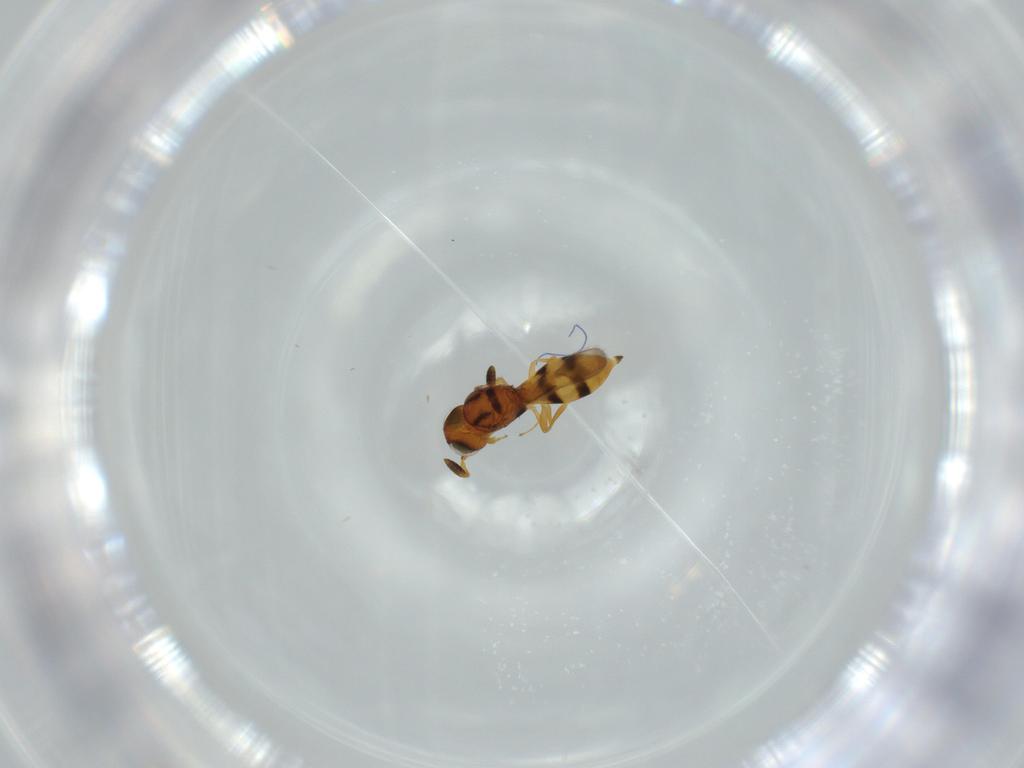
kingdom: Animalia
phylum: Arthropoda
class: Insecta
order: Hymenoptera
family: Scelionidae
